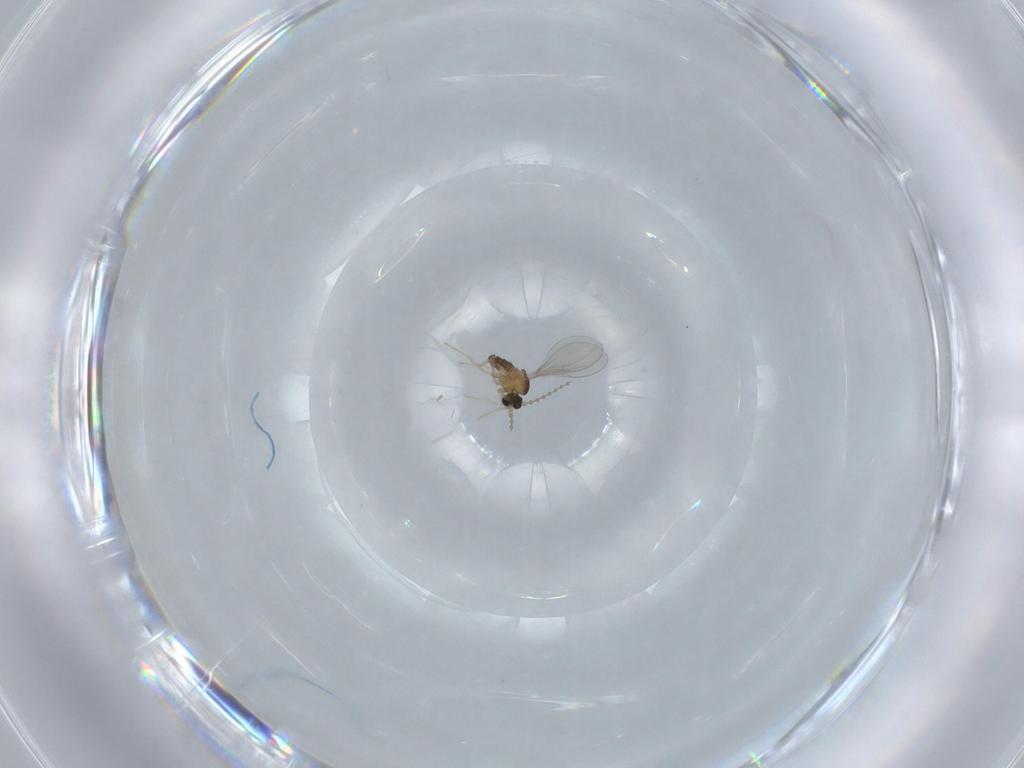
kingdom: Animalia
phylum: Arthropoda
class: Insecta
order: Diptera
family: Cecidomyiidae
